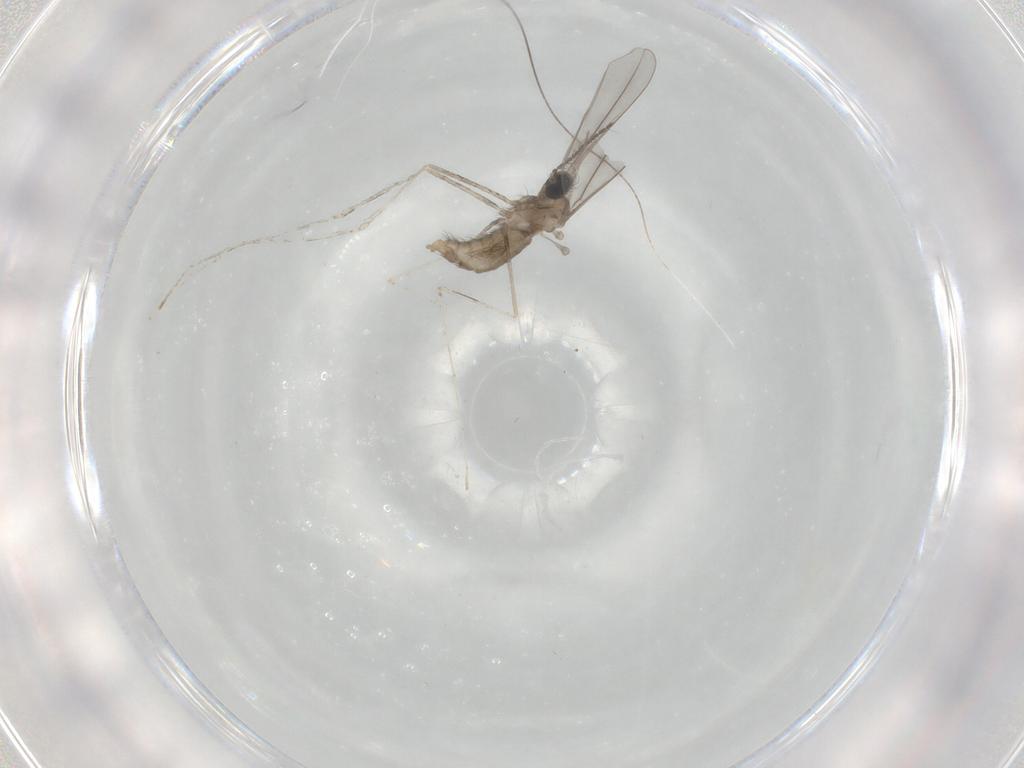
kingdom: Animalia
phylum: Arthropoda
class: Insecta
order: Diptera
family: Cecidomyiidae
